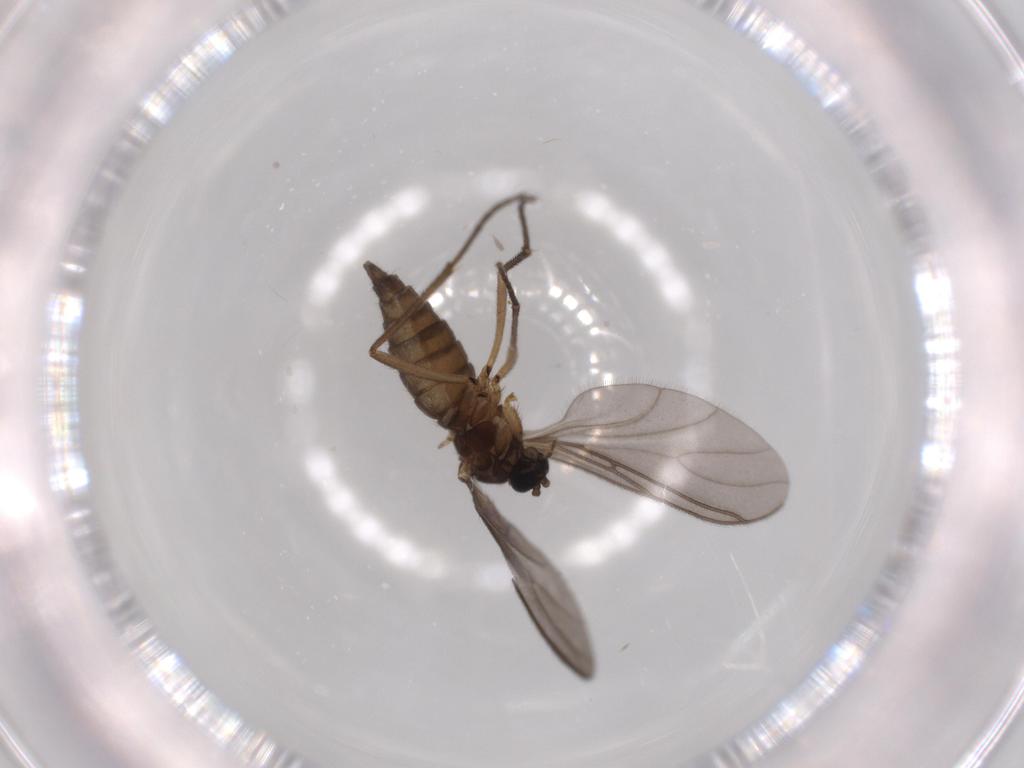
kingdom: Animalia
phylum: Arthropoda
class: Insecta
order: Diptera
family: Sciaridae
